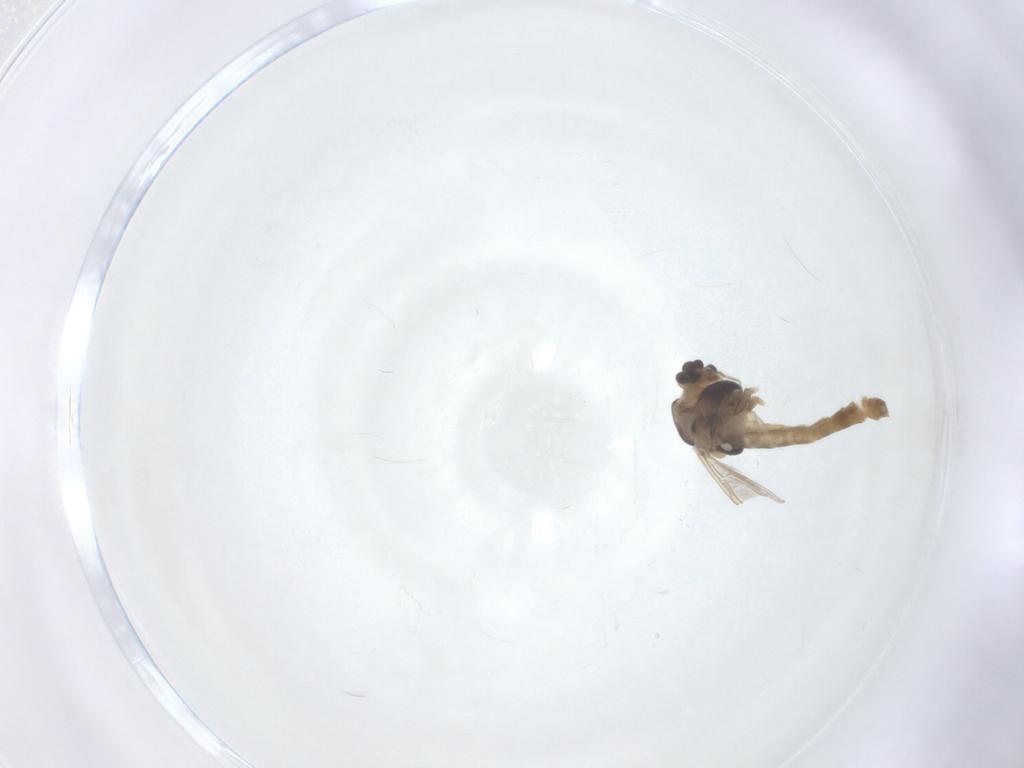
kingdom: Animalia
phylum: Arthropoda
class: Insecta
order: Diptera
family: Chironomidae
